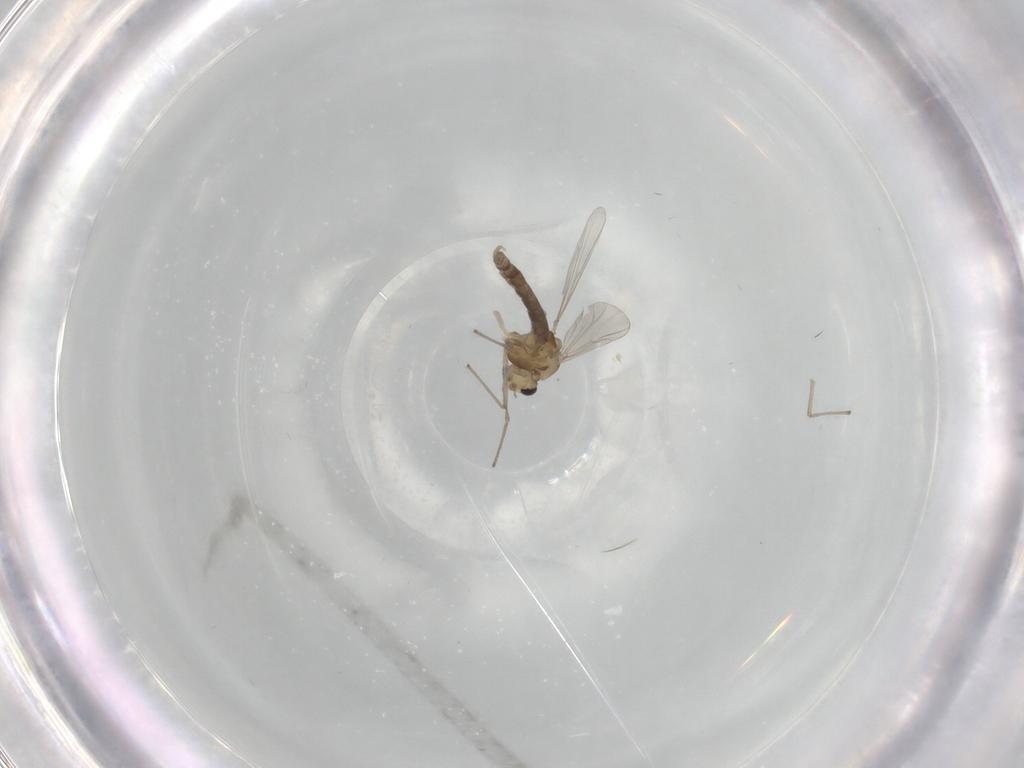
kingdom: Animalia
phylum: Arthropoda
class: Insecta
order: Diptera
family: Chironomidae
